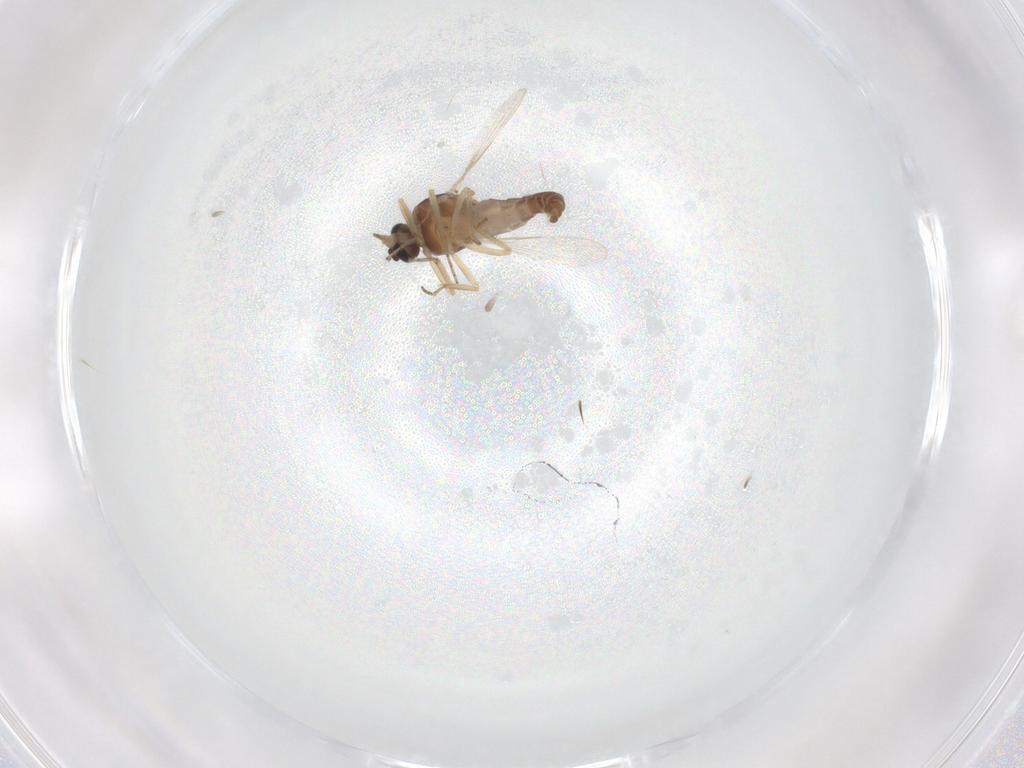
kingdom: Animalia
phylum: Arthropoda
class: Insecta
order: Diptera
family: Ceratopogonidae
